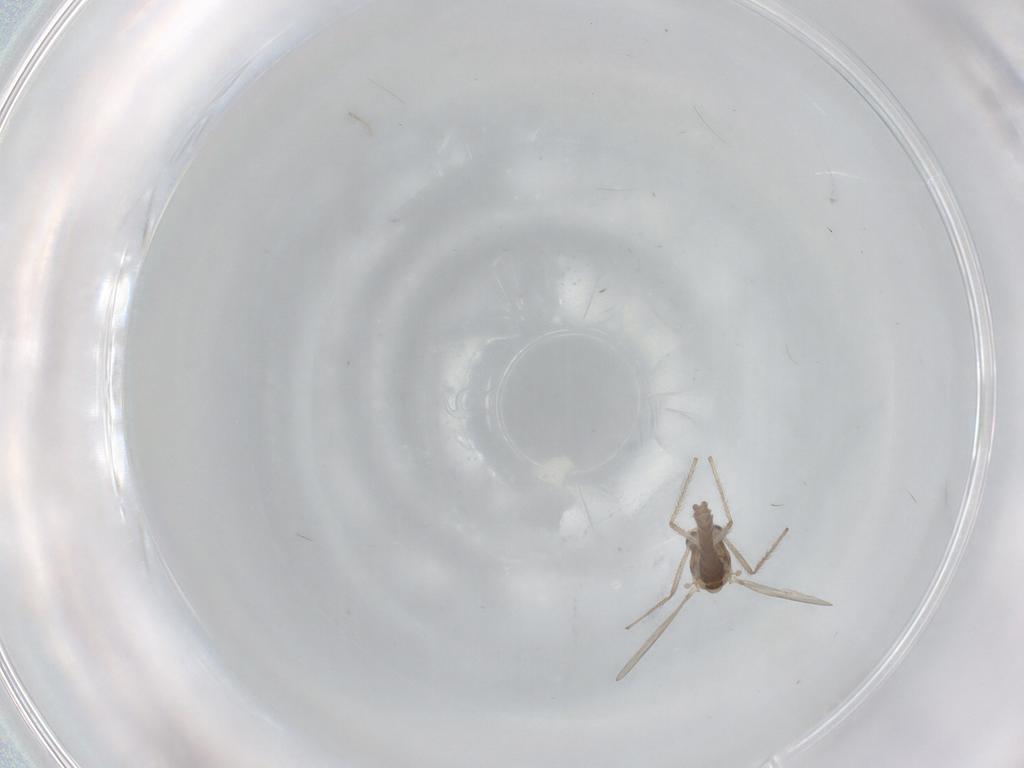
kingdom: Animalia
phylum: Arthropoda
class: Insecta
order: Diptera
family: Chironomidae
